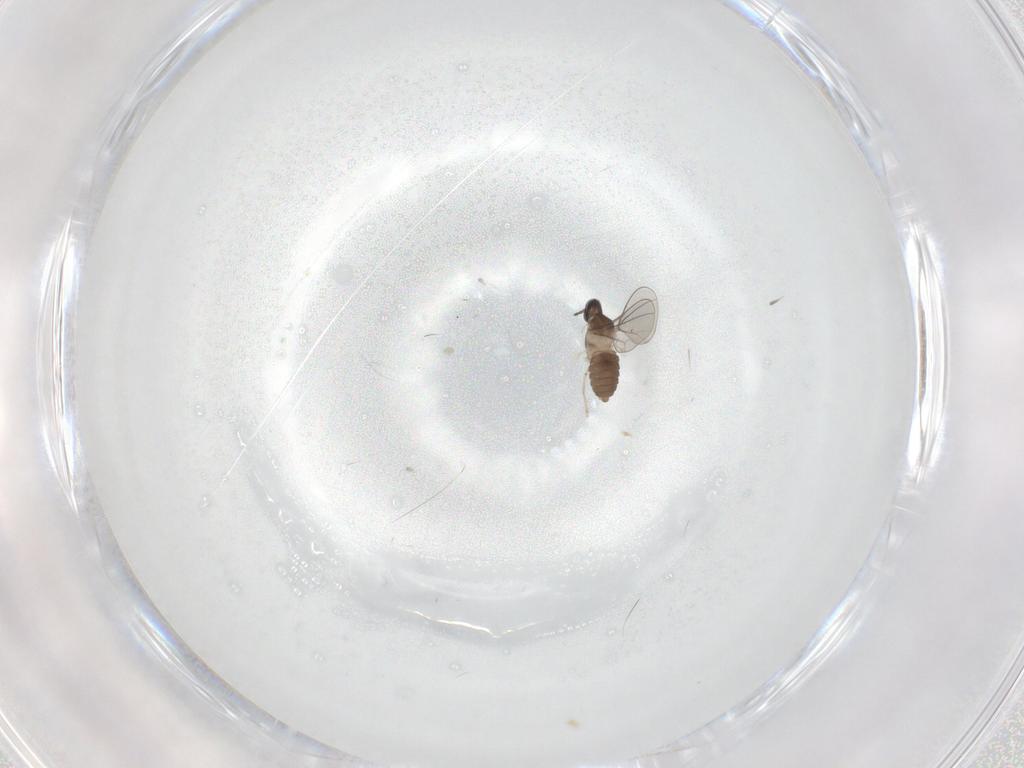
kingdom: Animalia
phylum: Arthropoda
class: Insecta
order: Diptera
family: Cecidomyiidae
